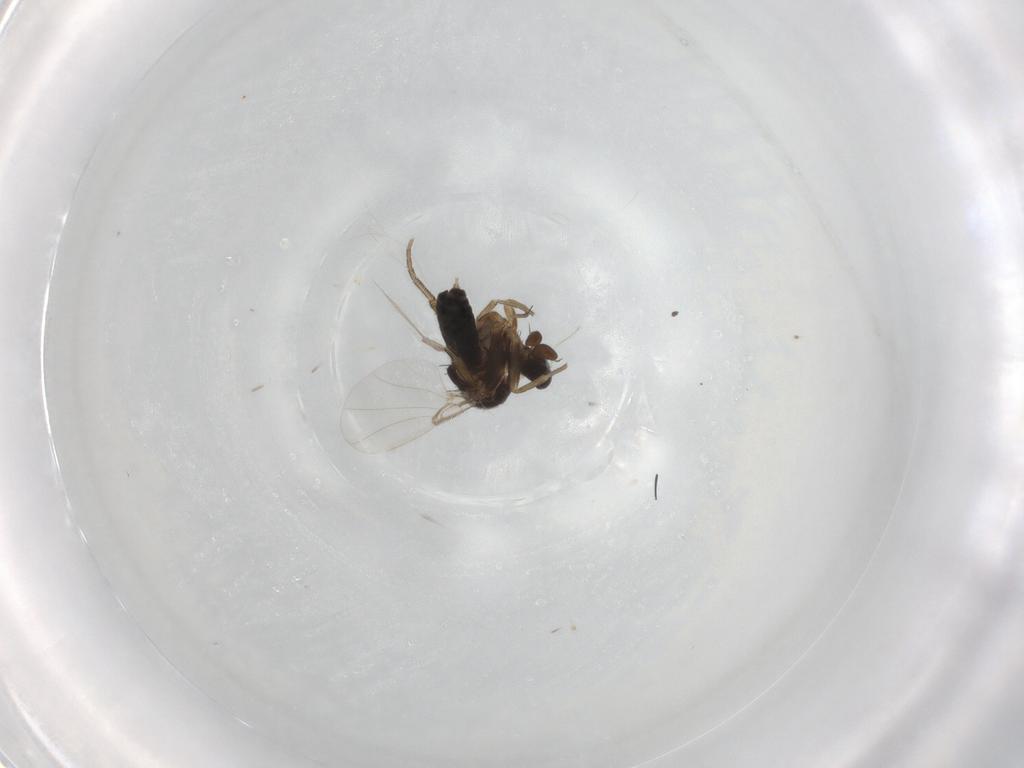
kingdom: Animalia
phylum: Arthropoda
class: Insecta
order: Diptera
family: Phoridae
